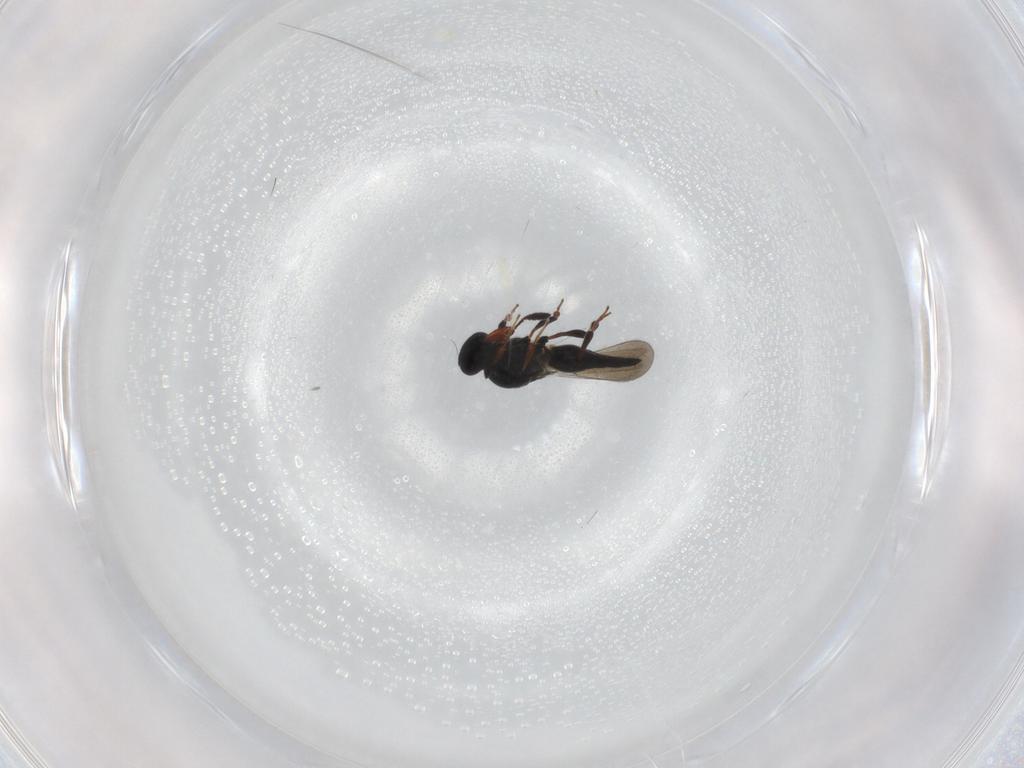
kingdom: Animalia
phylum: Arthropoda
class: Insecta
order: Hymenoptera
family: Platygastridae
